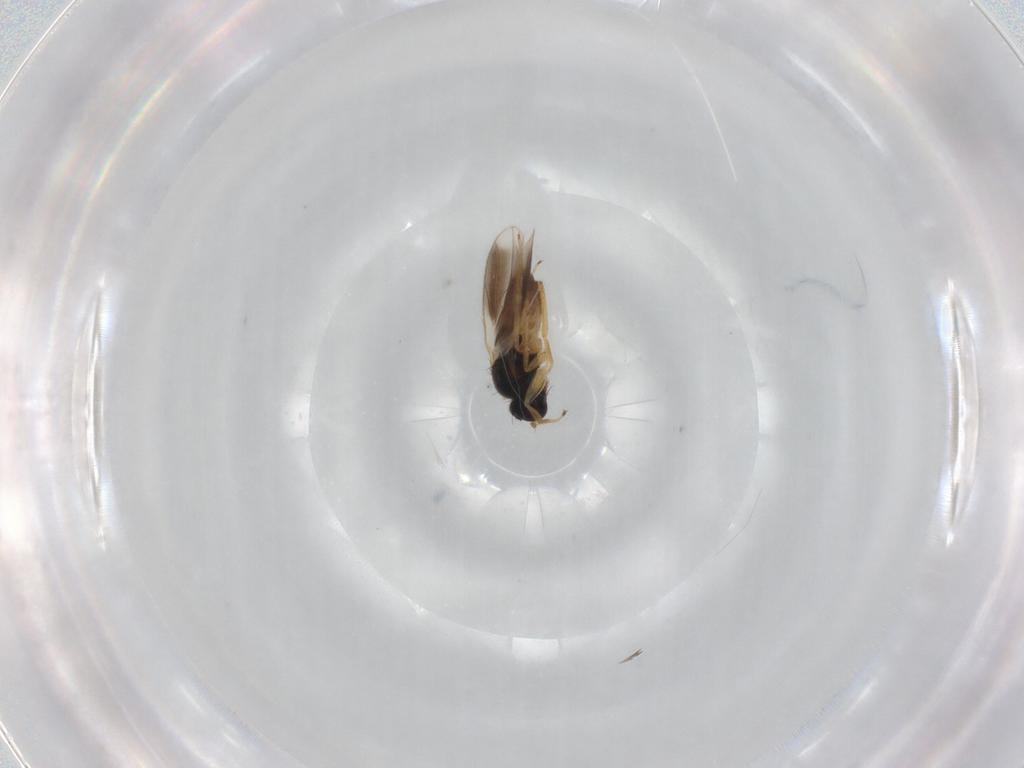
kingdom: Animalia
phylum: Arthropoda
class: Insecta
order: Diptera
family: Hybotidae
